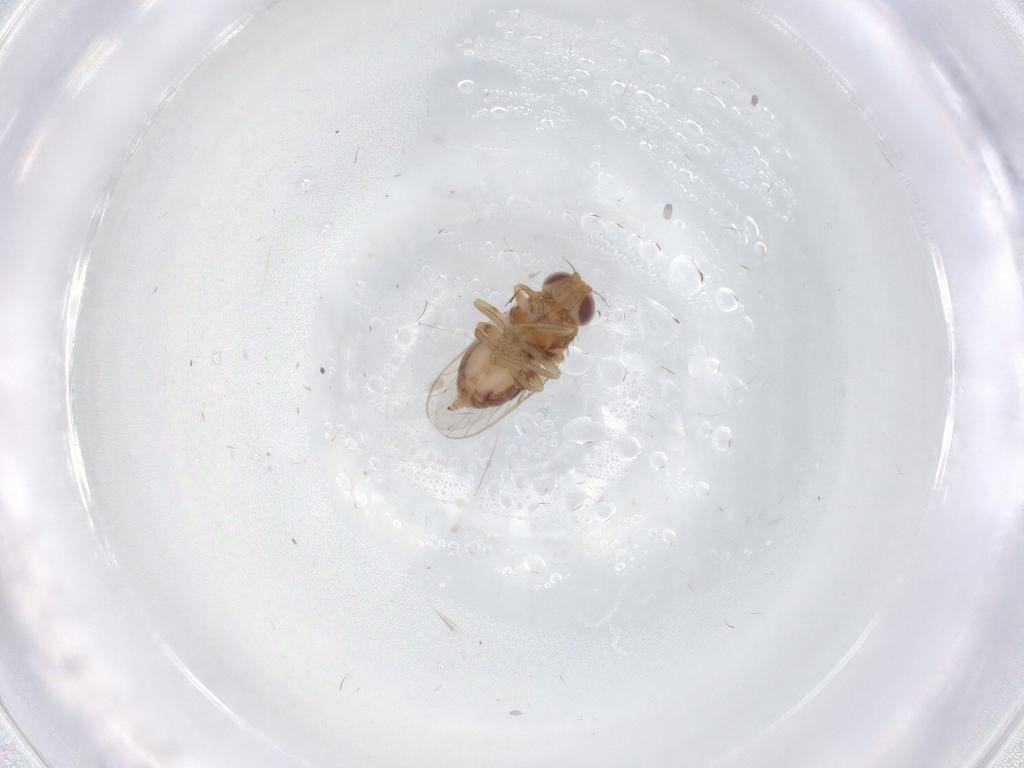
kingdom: Animalia
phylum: Arthropoda
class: Insecta
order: Diptera
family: Chloropidae
